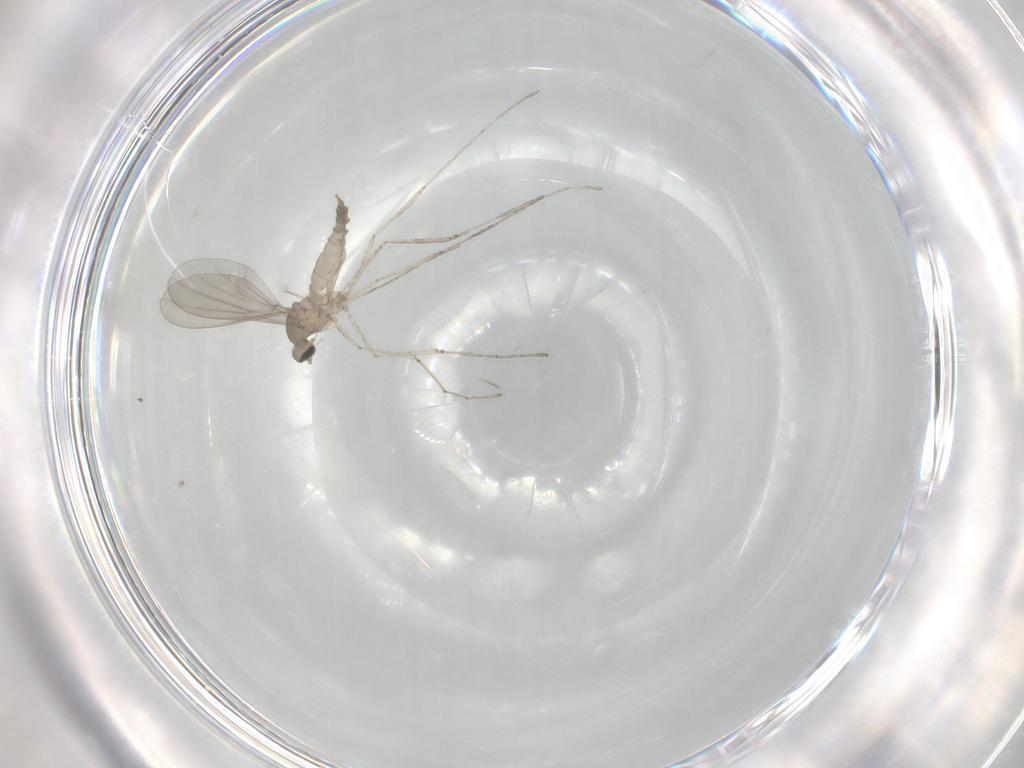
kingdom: Animalia
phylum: Arthropoda
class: Insecta
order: Diptera
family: Cecidomyiidae
